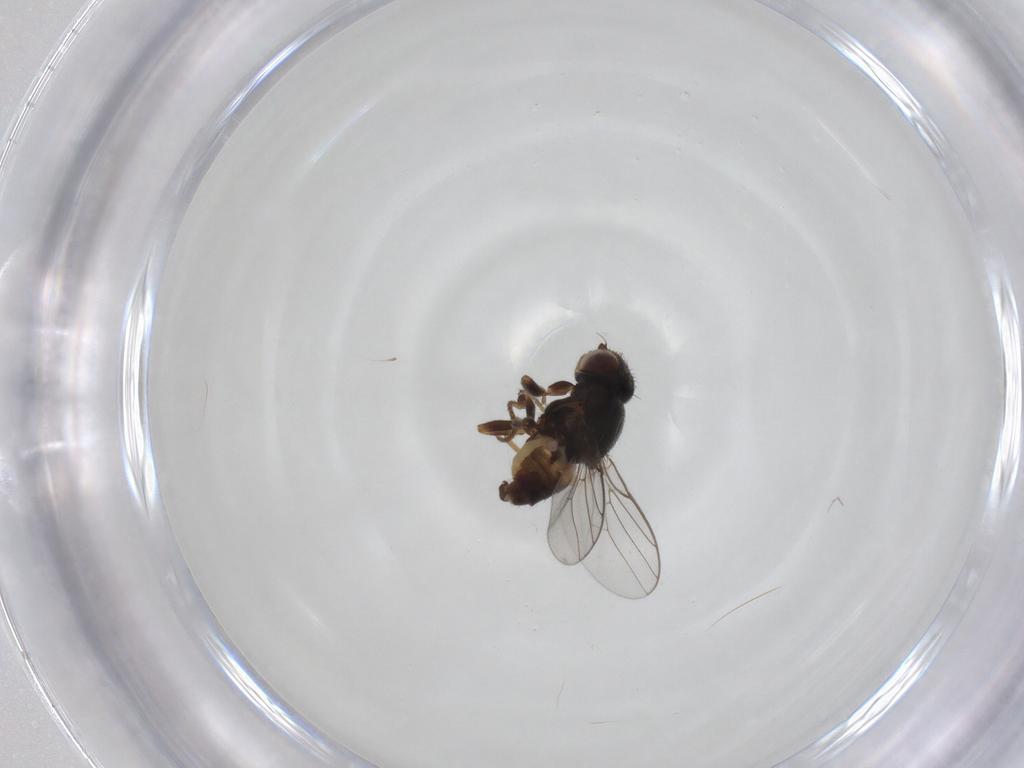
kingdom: Animalia
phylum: Arthropoda
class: Insecta
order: Diptera
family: Chloropidae
